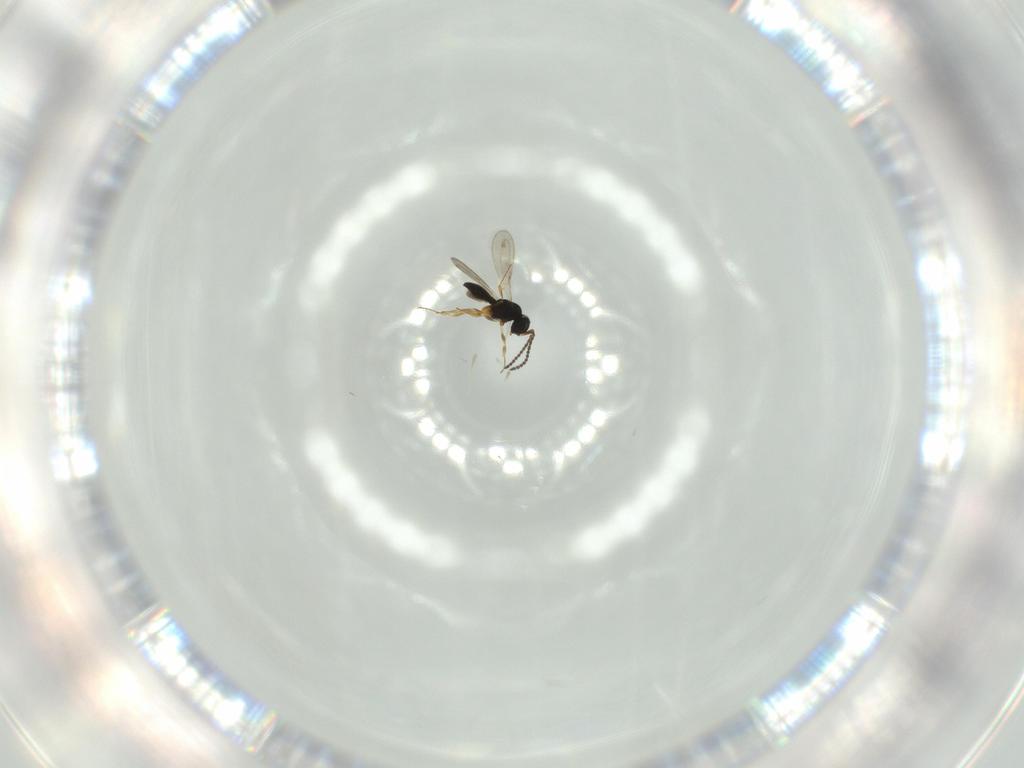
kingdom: Animalia
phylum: Arthropoda
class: Insecta
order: Hymenoptera
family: Scelionidae
